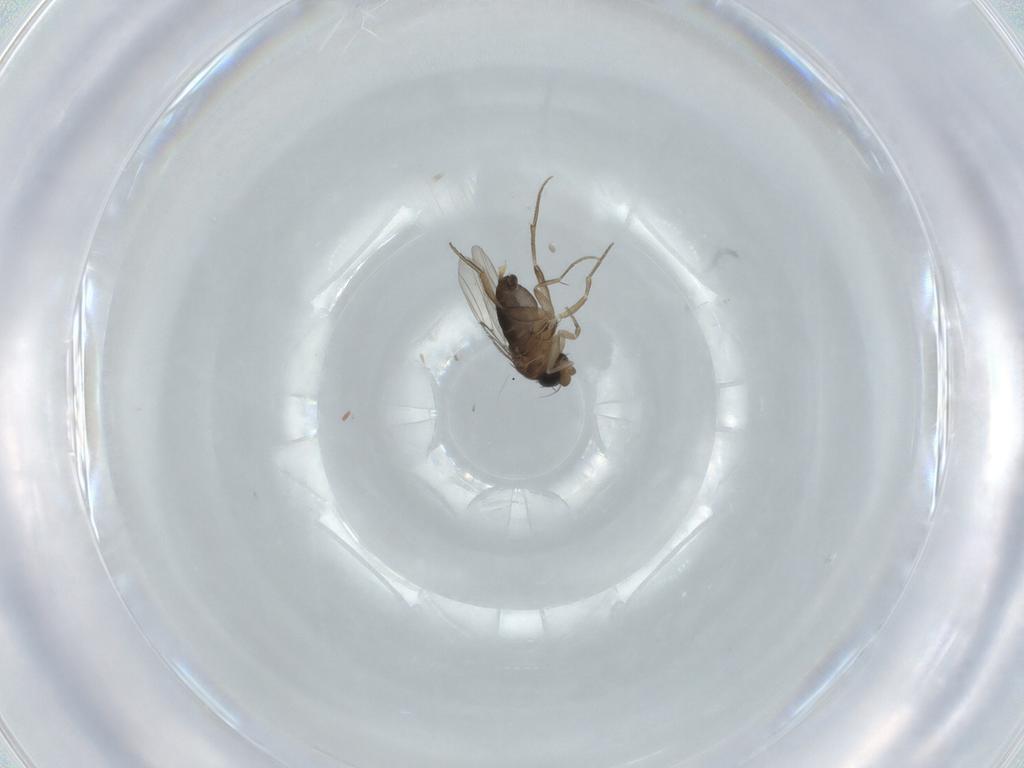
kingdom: Animalia
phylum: Arthropoda
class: Insecta
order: Diptera
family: Phoridae
